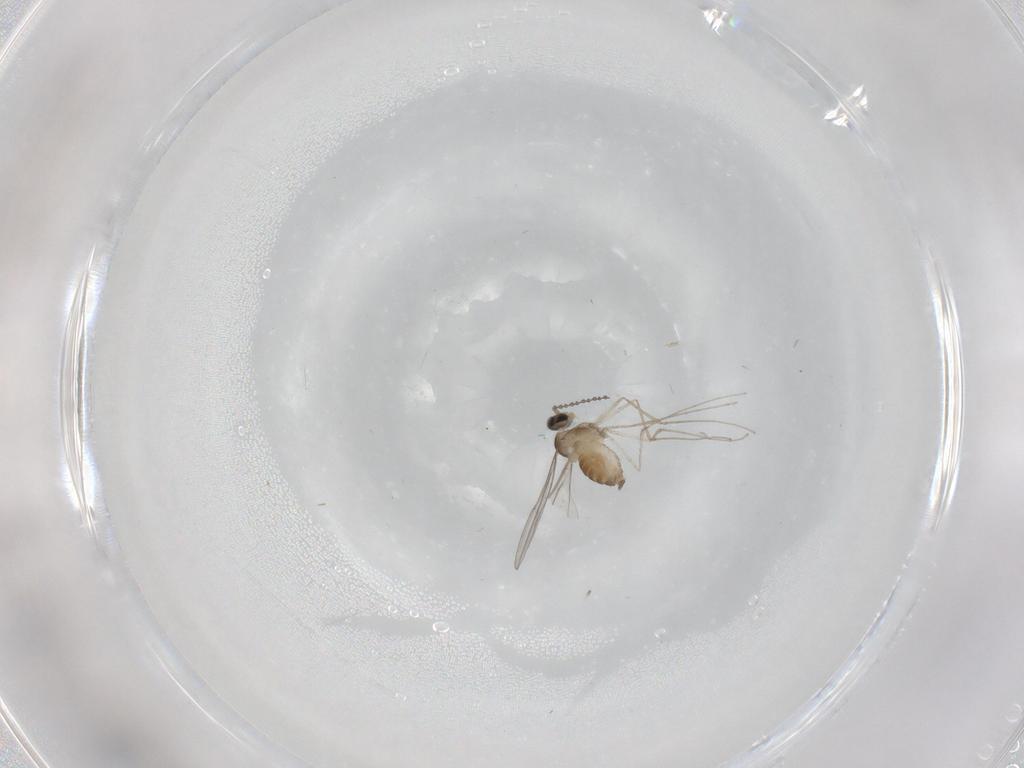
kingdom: Animalia
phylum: Arthropoda
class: Insecta
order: Diptera
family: Cecidomyiidae
